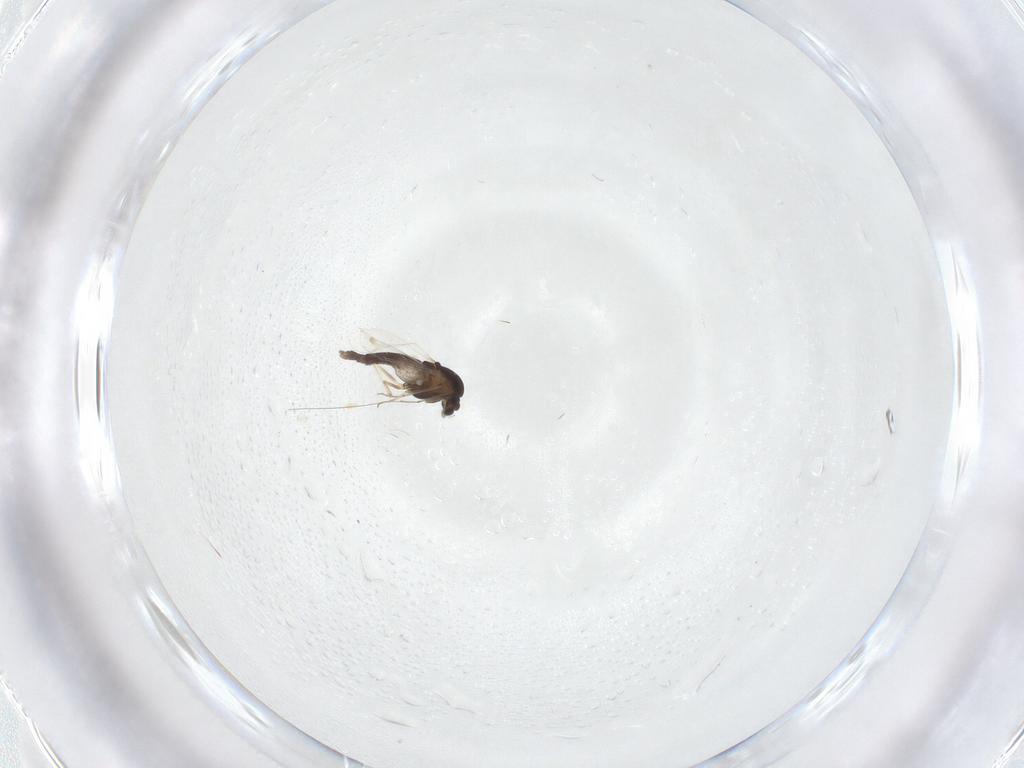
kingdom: Animalia
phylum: Arthropoda
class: Insecta
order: Diptera
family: Chironomidae
